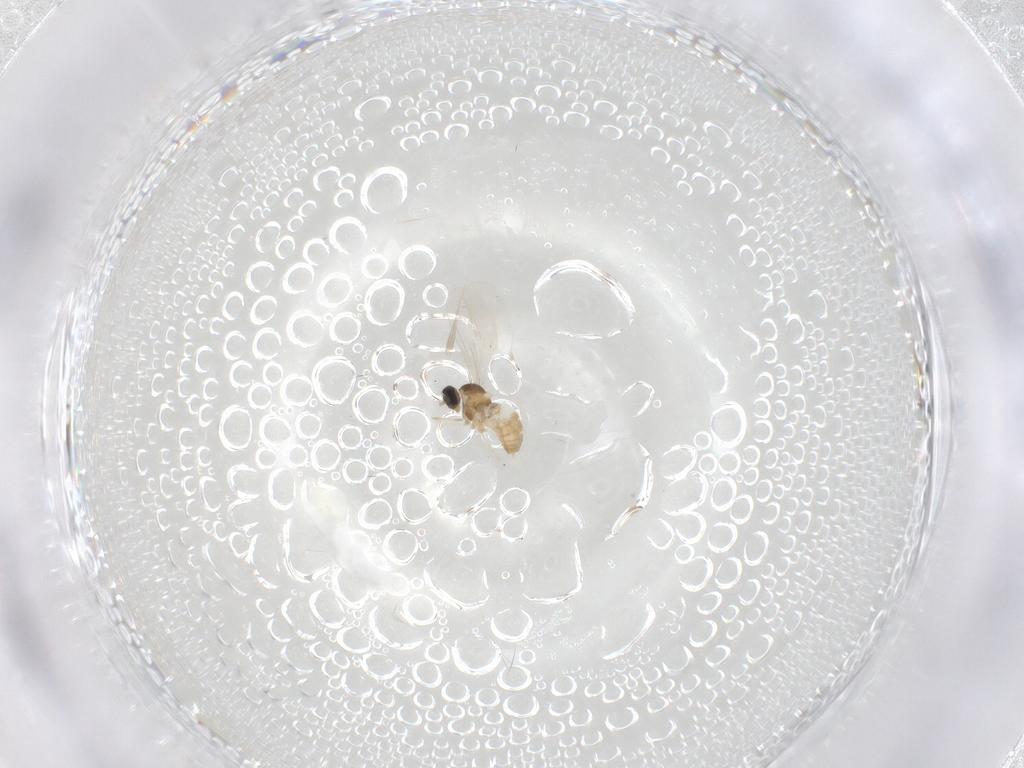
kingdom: Animalia
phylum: Arthropoda
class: Insecta
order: Diptera
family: Cecidomyiidae
